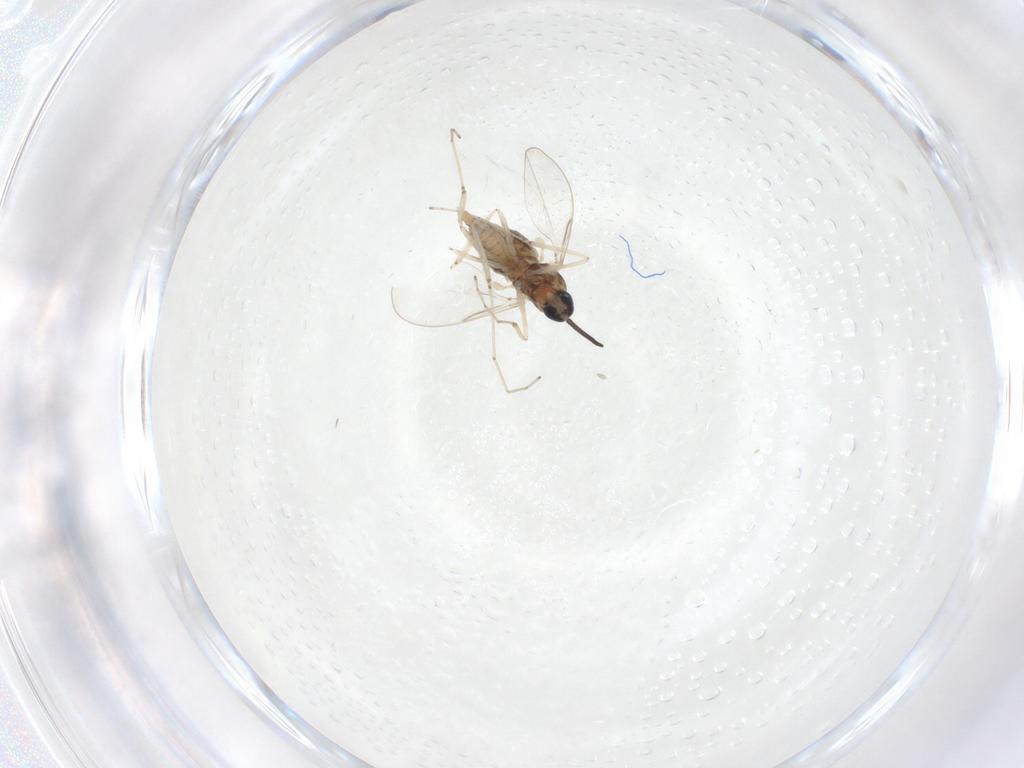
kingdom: Animalia
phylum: Arthropoda
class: Insecta
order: Diptera
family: Cecidomyiidae
